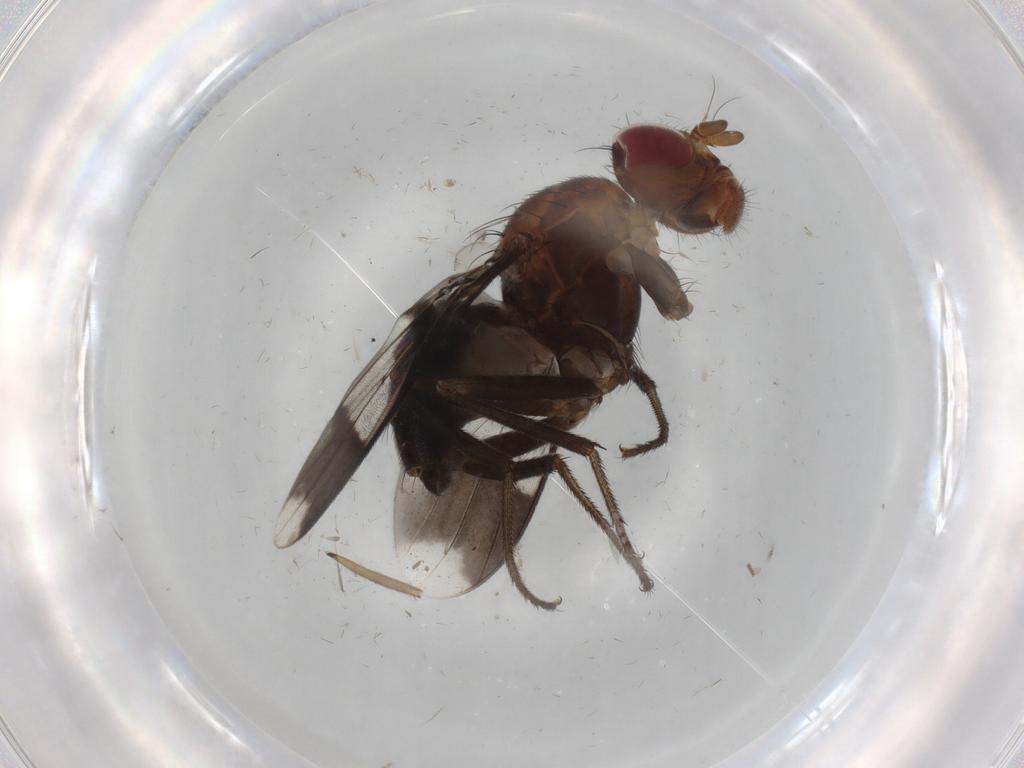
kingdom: Animalia
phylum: Arthropoda
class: Insecta
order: Diptera
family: Richardiidae
